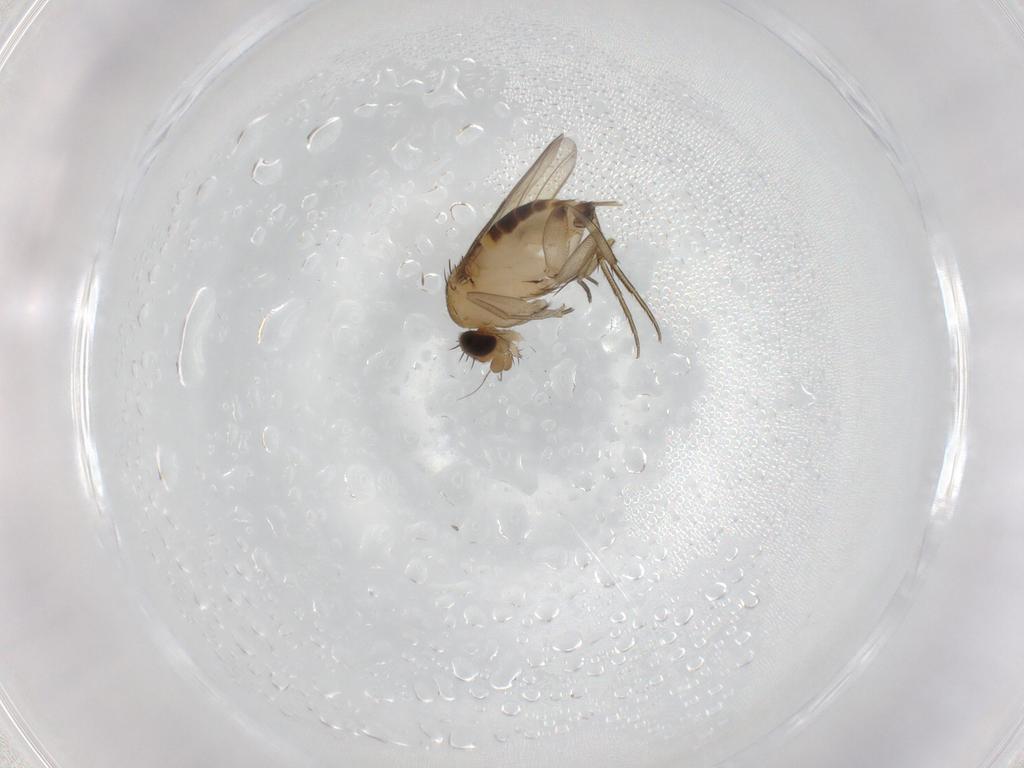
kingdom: Animalia
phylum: Arthropoda
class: Insecta
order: Diptera
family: Phoridae
